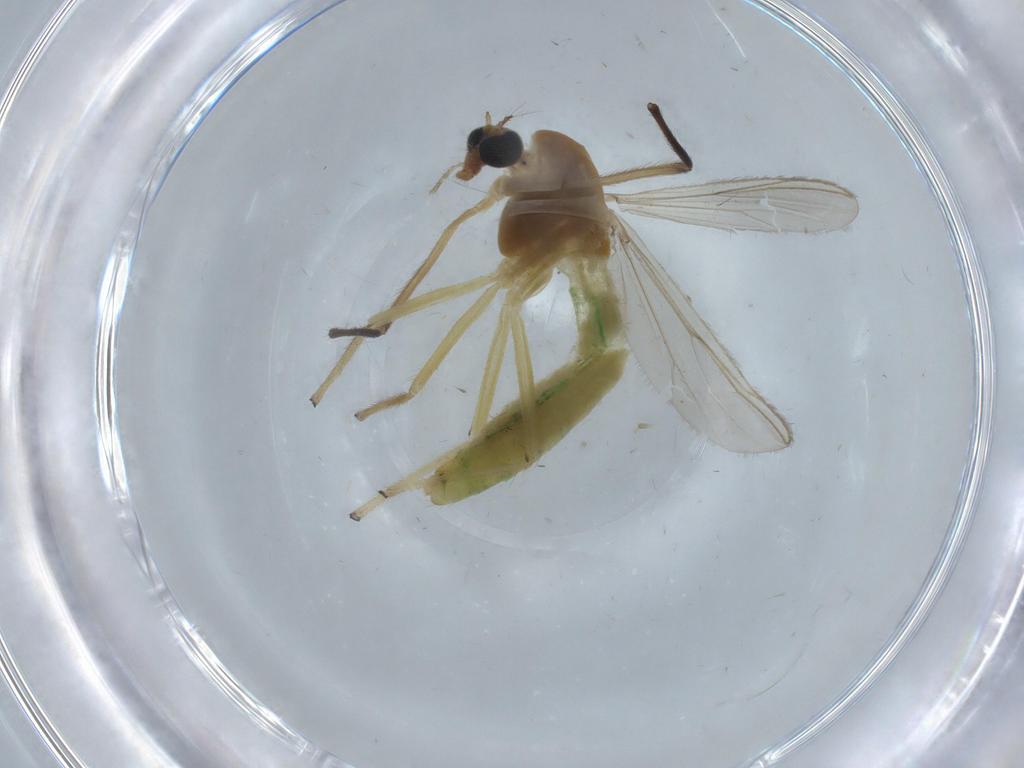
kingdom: Animalia
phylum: Arthropoda
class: Insecta
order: Diptera
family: Chironomidae
